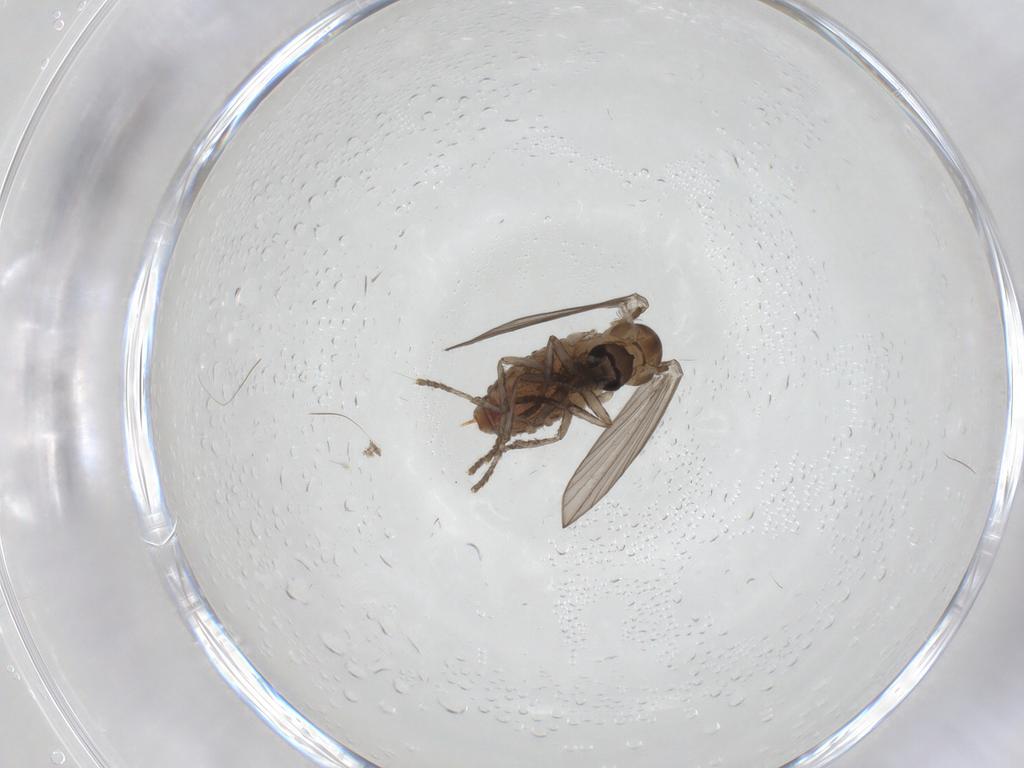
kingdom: Animalia
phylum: Arthropoda
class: Insecta
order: Diptera
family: Psychodidae
